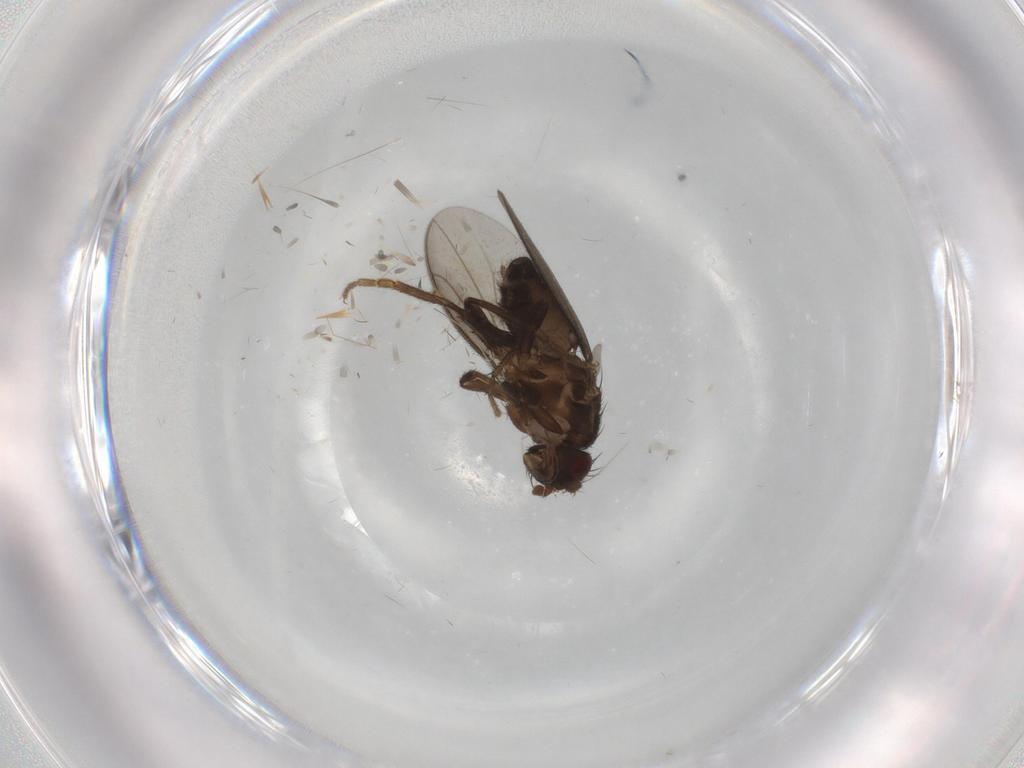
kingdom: Animalia
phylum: Arthropoda
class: Insecta
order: Diptera
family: Sphaeroceridae
